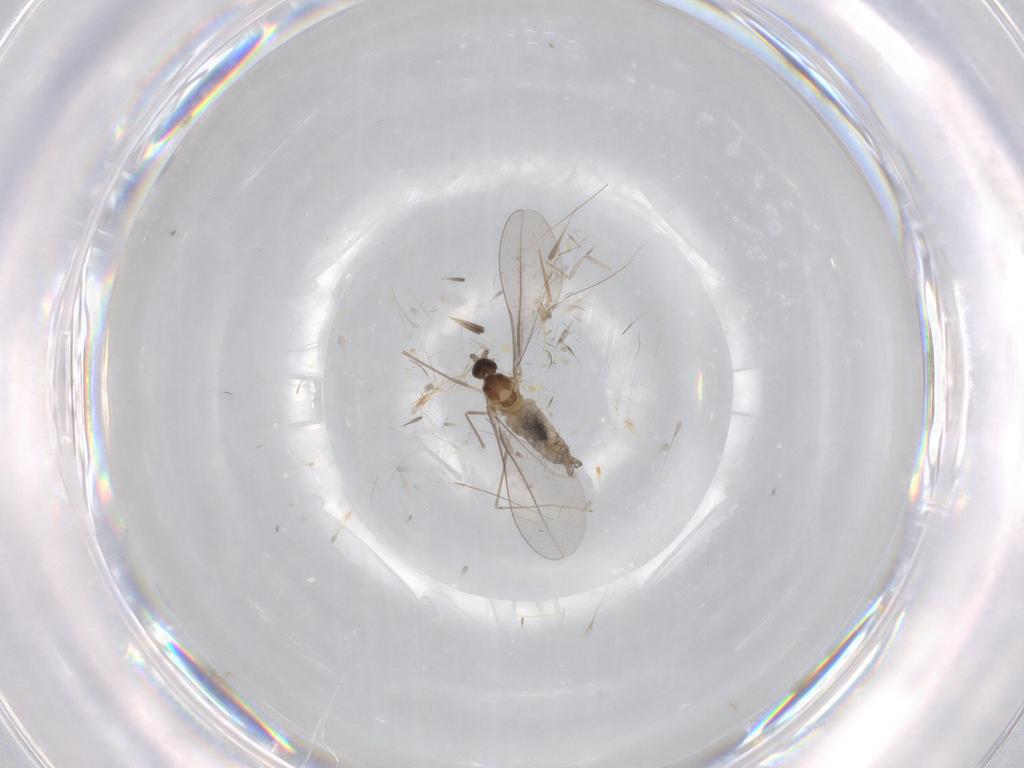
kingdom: Animalia
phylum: Arthropoda
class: Insecta
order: Diptera
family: Cecidomyiidae
